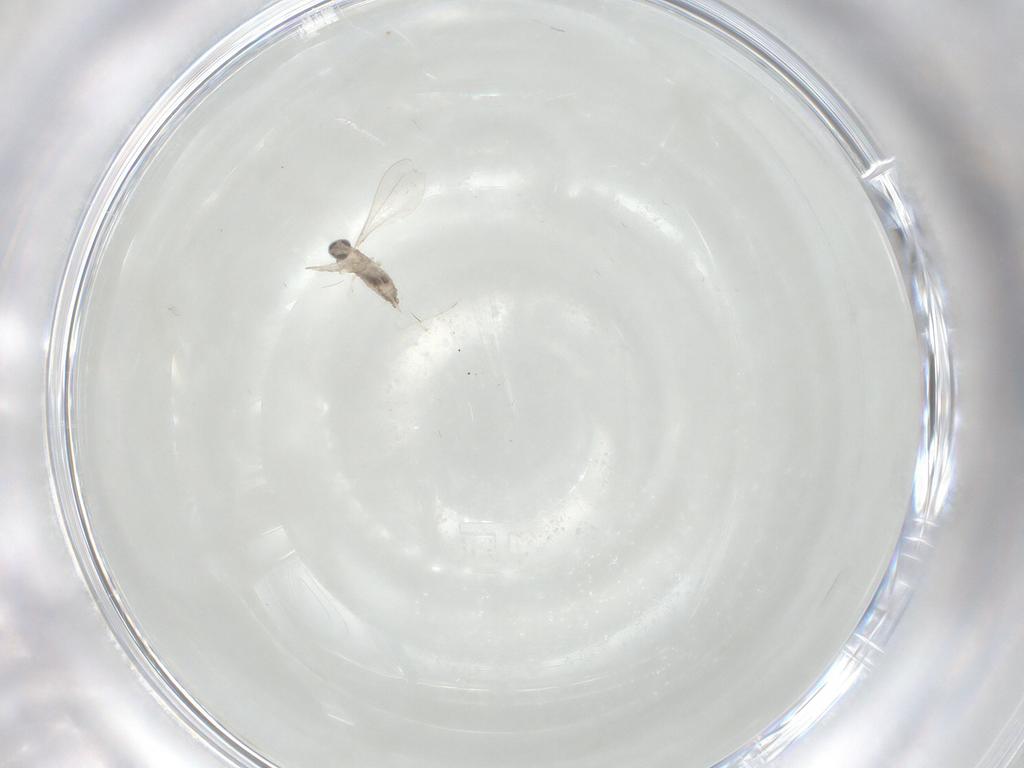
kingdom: Animalia
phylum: Arthropoda
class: Insecta
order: Diptera
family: Cecidomyiidae
